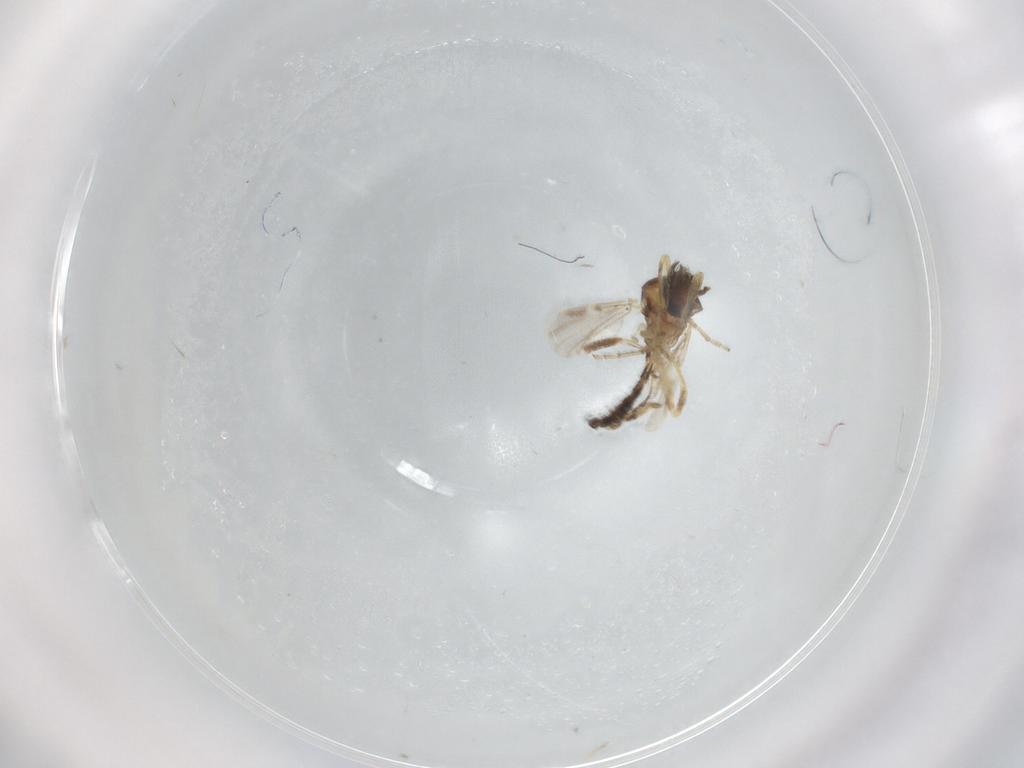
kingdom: Animalia
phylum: Arthropoda
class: Insecta
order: Diptera
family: Ceratopogonidae
